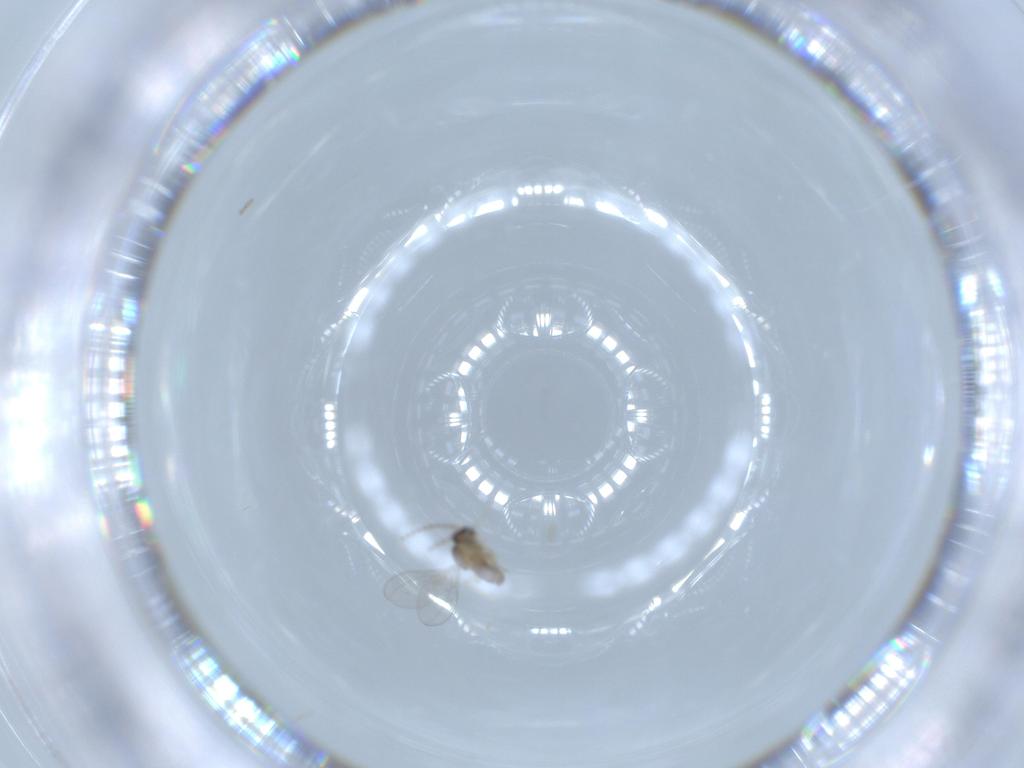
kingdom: Animalia
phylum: Arthropoda
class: Insecta
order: Diptera
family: Cecidomyiidae
